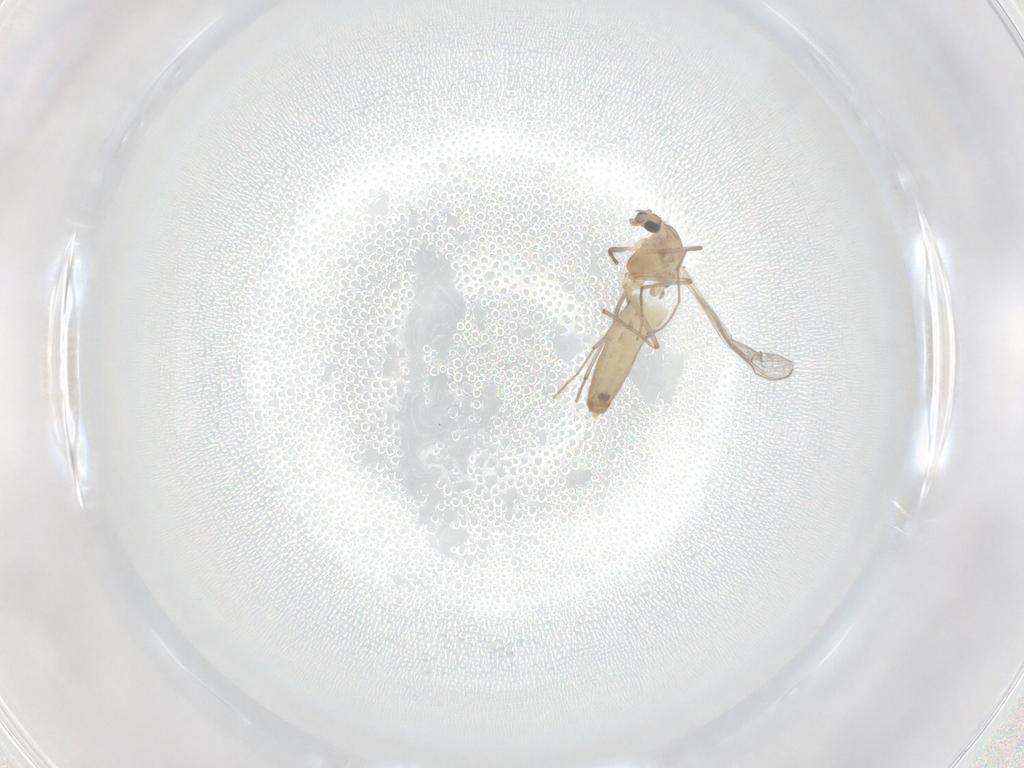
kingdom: Animalia
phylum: Arthropoda
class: Insecta
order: Diptera
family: Chironomidae
